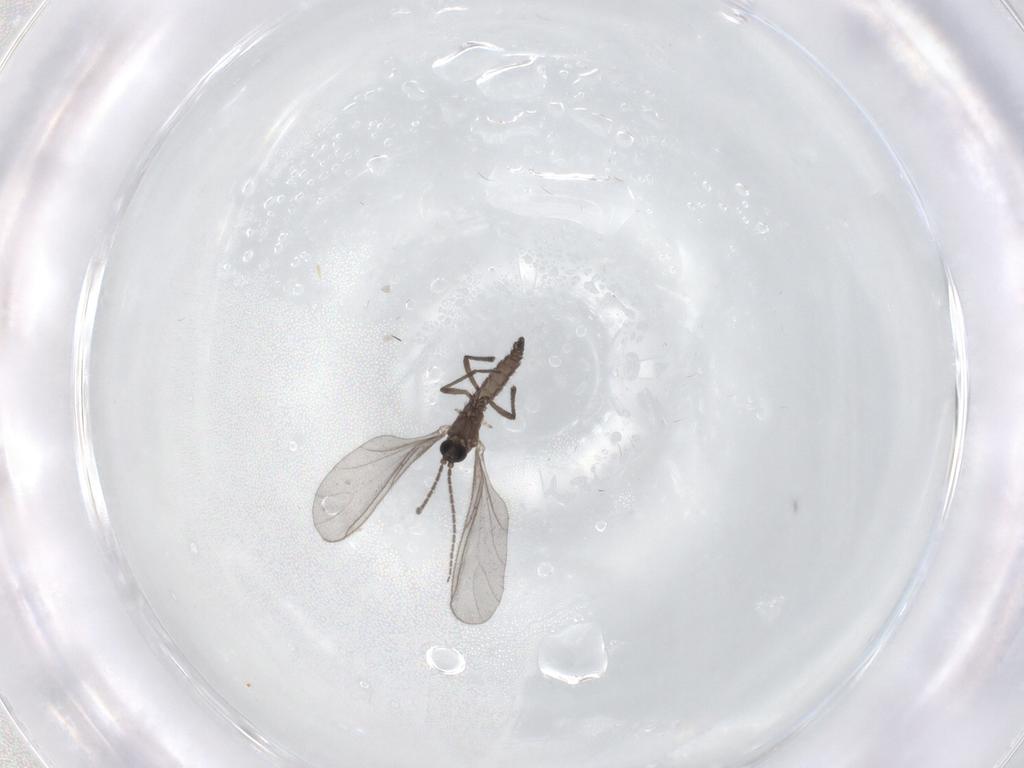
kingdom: Animalia
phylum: Arthropoda
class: Insecta
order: Diptera
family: Sciaridae
